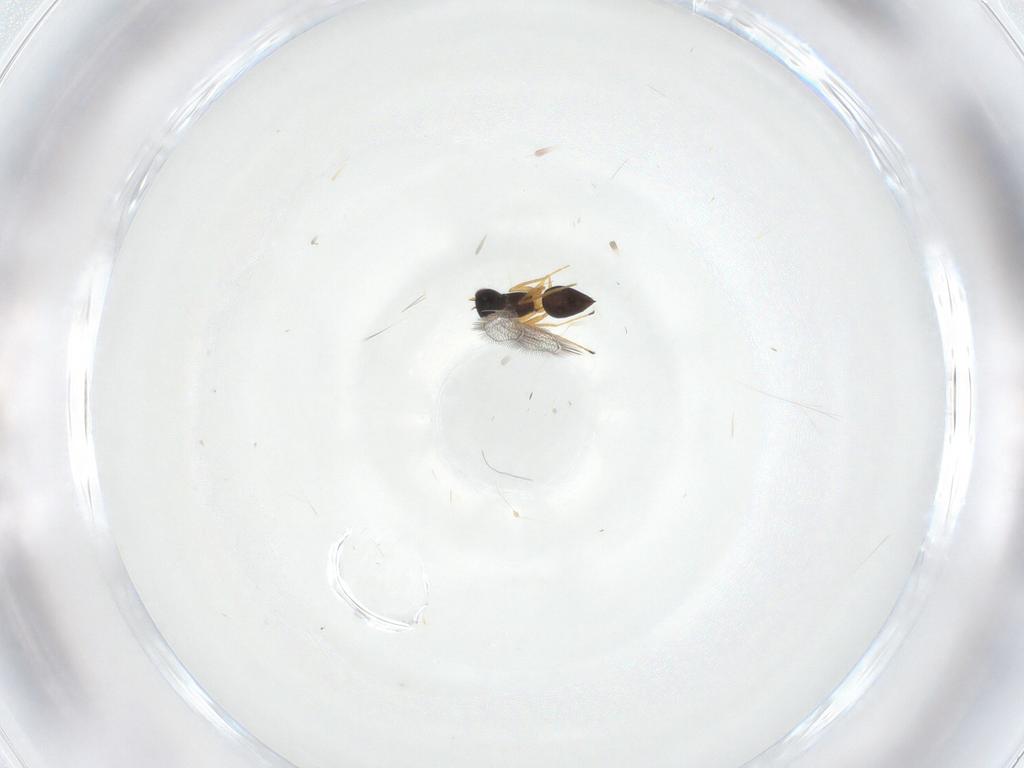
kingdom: Animalia
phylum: Arthropoda
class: Insecta
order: Hymenoptera
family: Mymaridae
